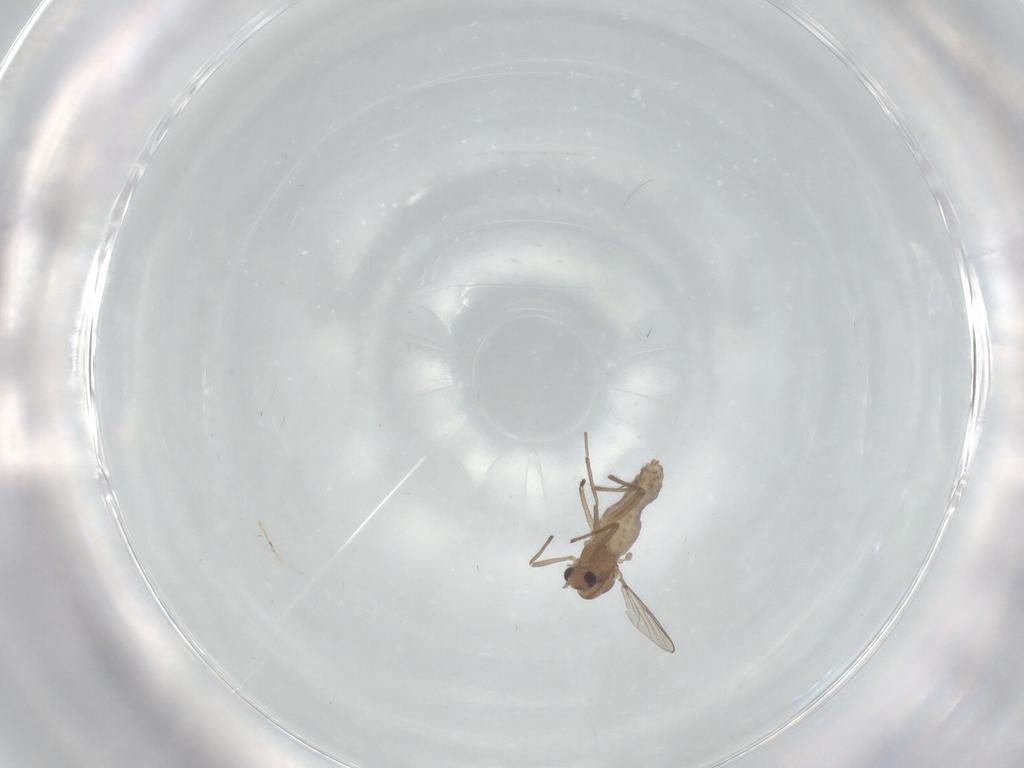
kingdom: Animalia
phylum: Arthropoda
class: Insecta
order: Diptera
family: Chironomidae
